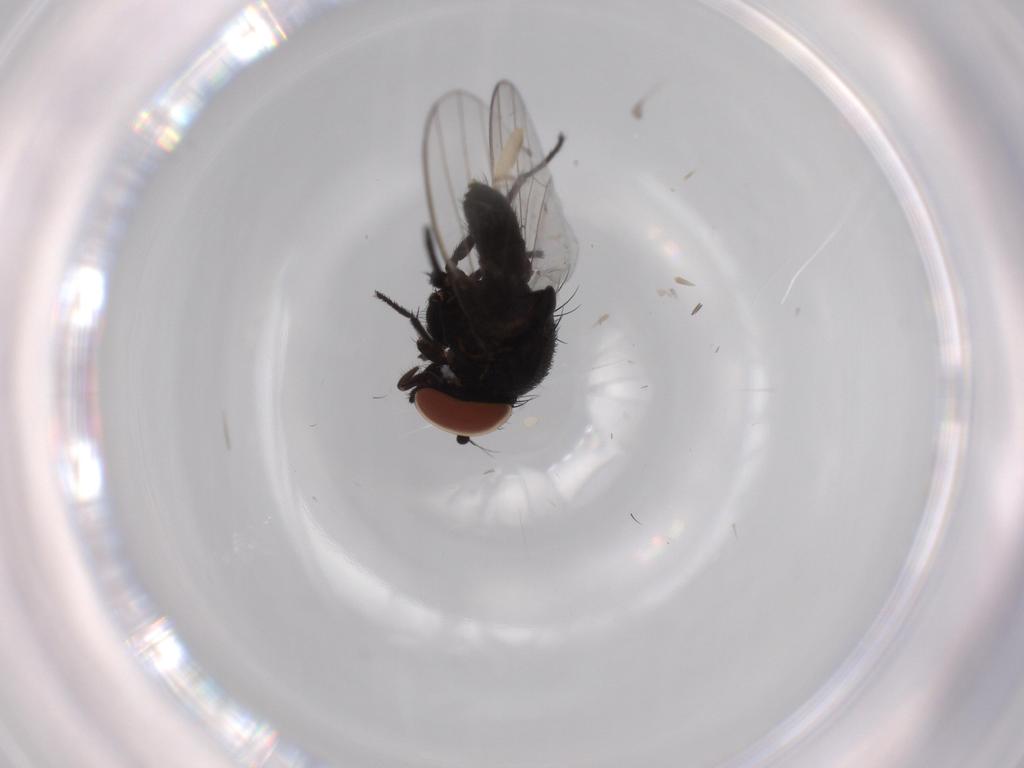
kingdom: Animalia
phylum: Arthropoda
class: Insecta
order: Diptera
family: Milichiidae
